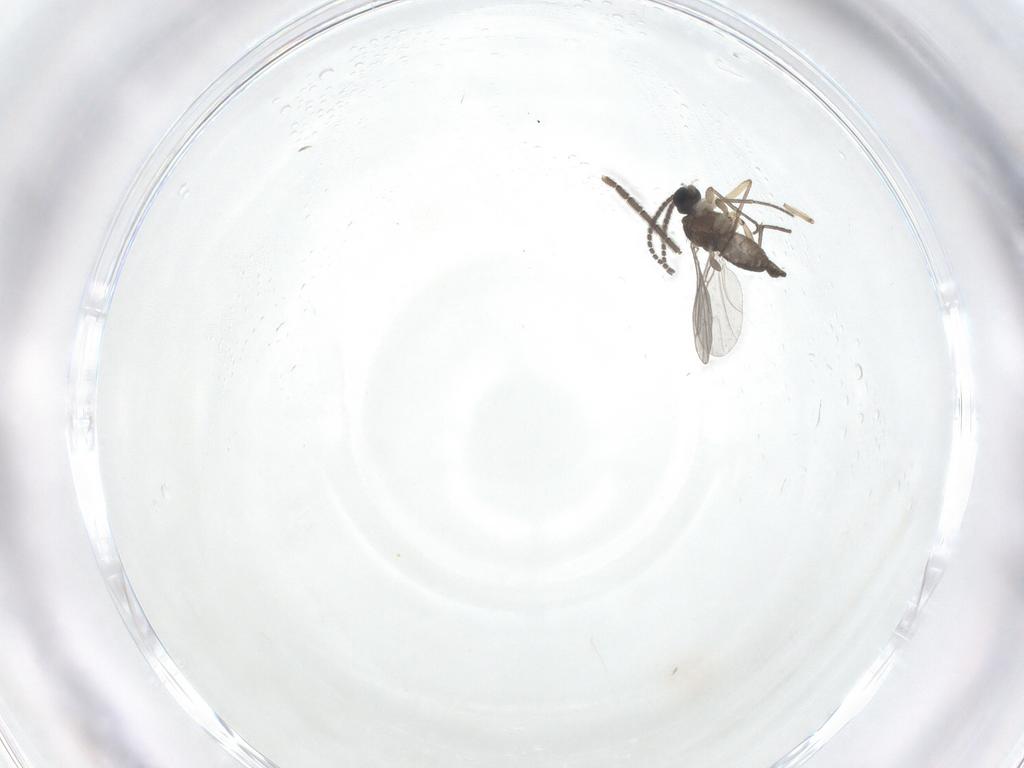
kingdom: Animalia
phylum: Arthropoda
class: Insecta
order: Diptera
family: Sciaridae
